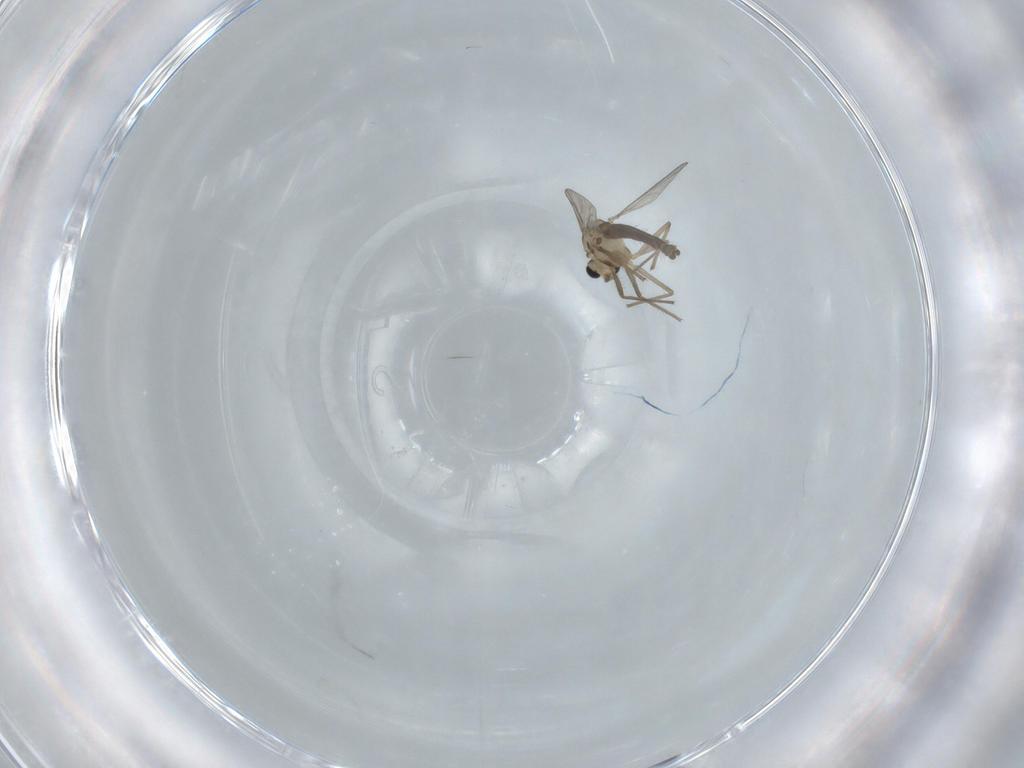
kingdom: Animalia
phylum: Arthropoda
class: Insecta
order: Diptera
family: Chironomidae
